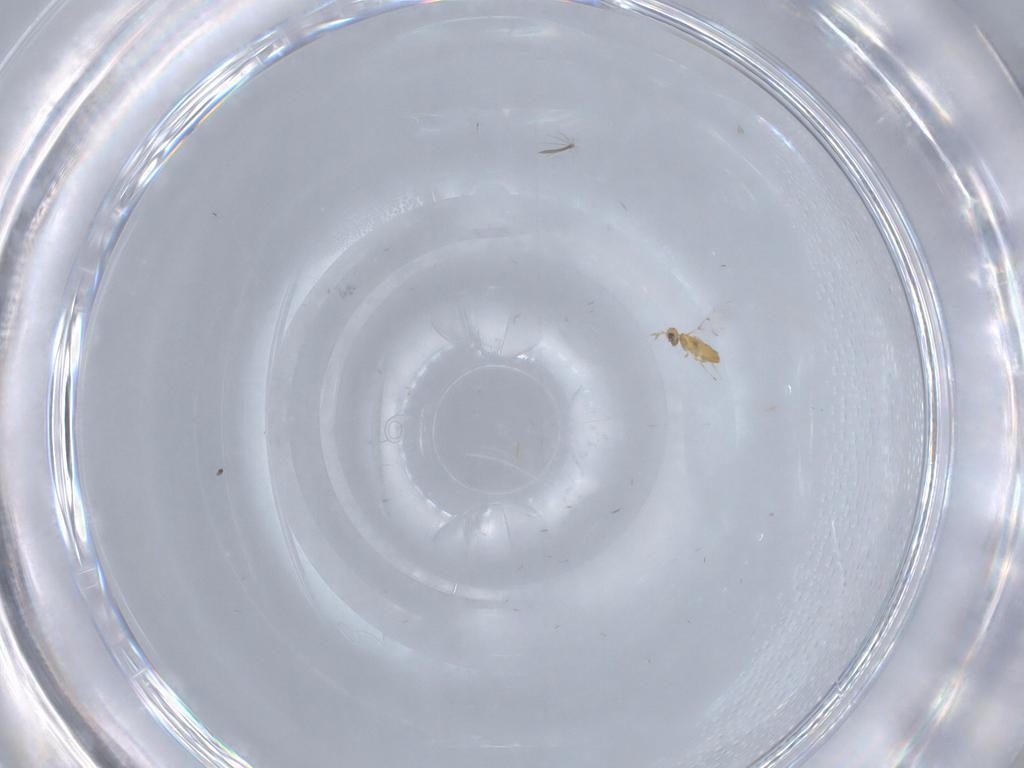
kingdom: Animalia
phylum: Arthropoda
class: Insecta
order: Hymenoptera
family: Trichogrammatidae
